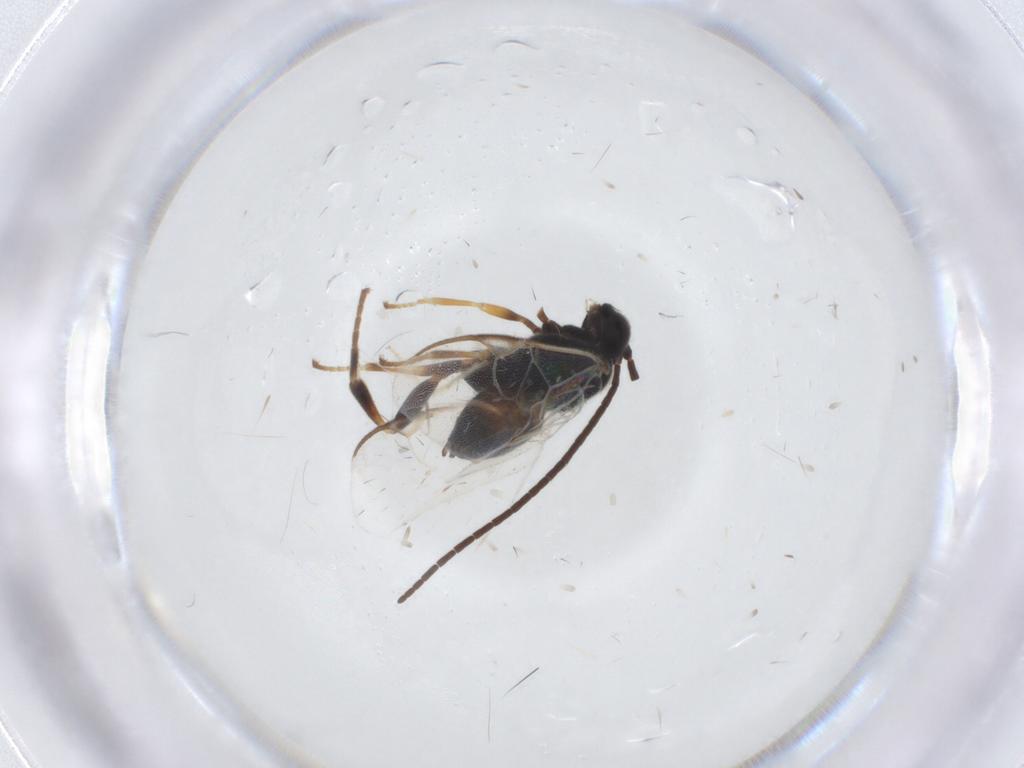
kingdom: Animalia
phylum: Arthropoda
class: Insecta
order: Hymenoptera
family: Braconidae
